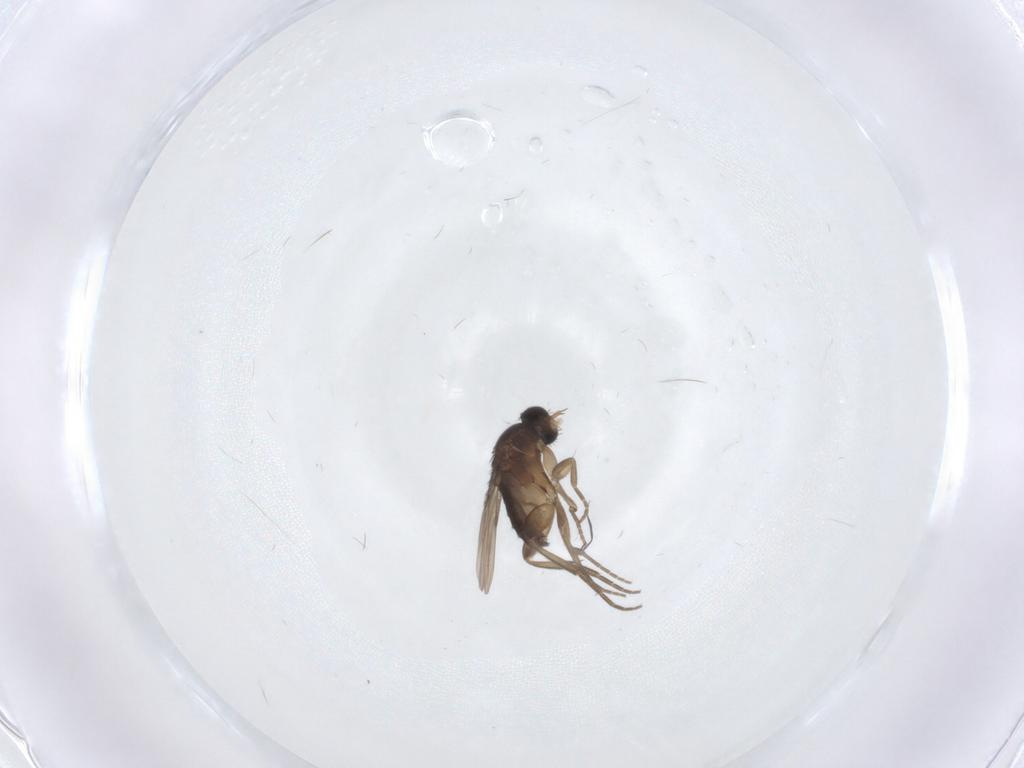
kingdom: Animalia
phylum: Arthropoda
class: Insecta
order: Diptera
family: Phoridae
